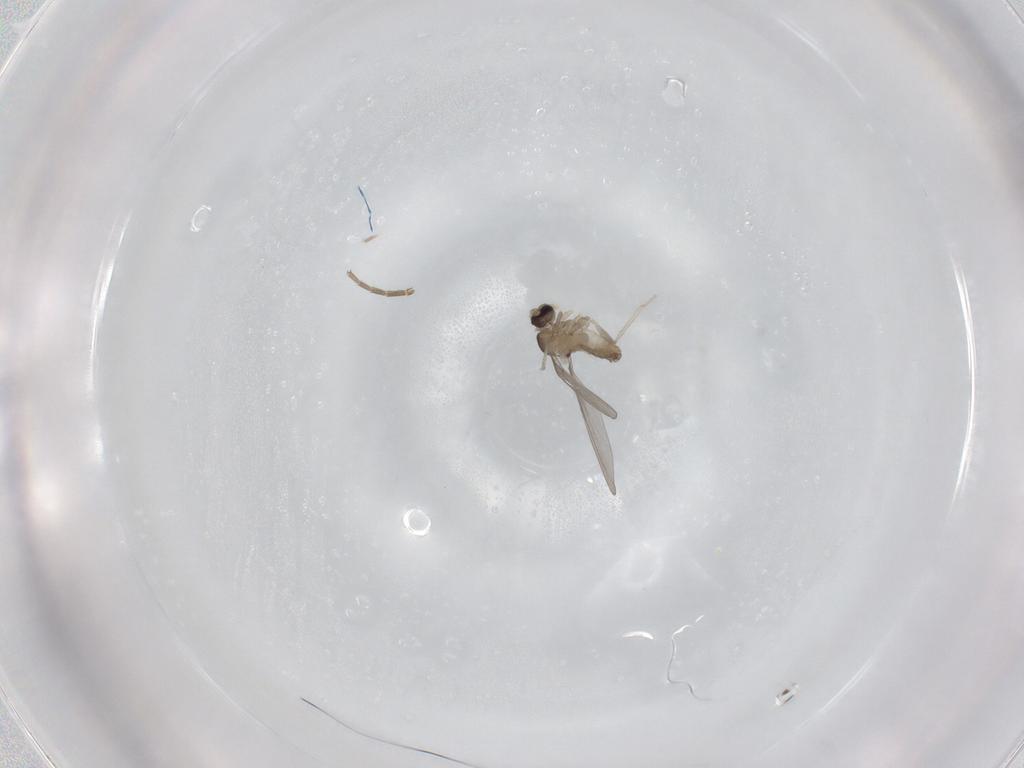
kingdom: Animalia
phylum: Arthropoda
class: Insecta
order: Diptera
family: Cecidomyiidae
